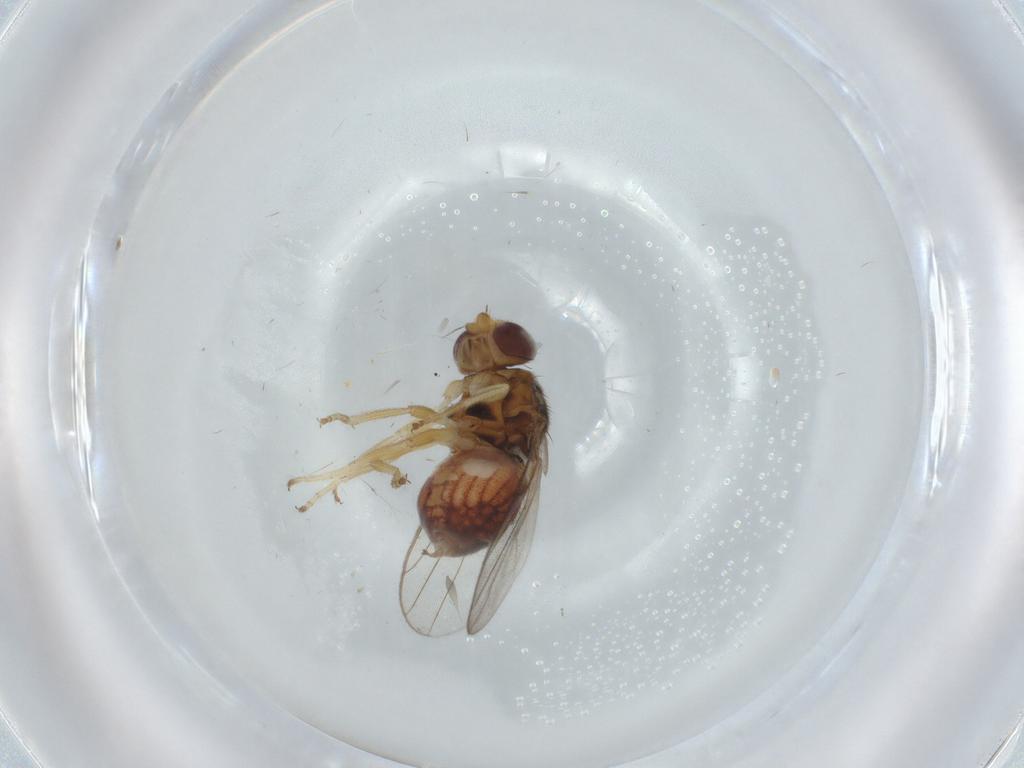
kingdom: Animalia
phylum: Arthropoda
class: Insecta
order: Diptera
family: Chloropidae
